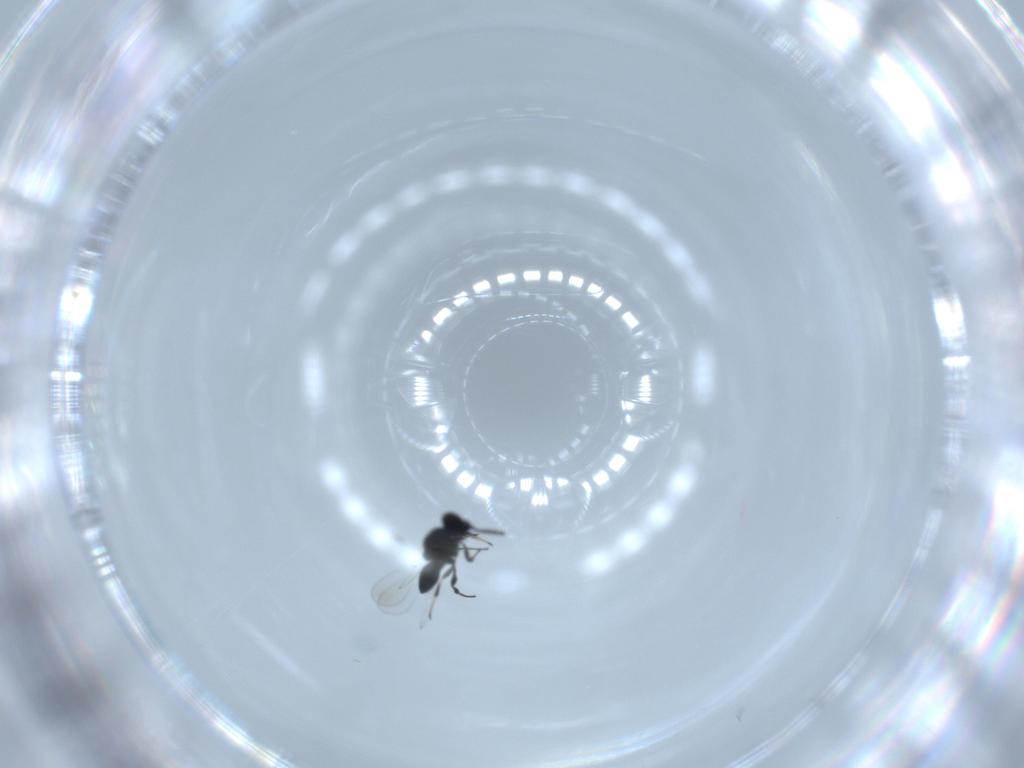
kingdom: Animalia
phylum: Arthropoda
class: Insecta
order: Hymenoptera
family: Platygastridae
